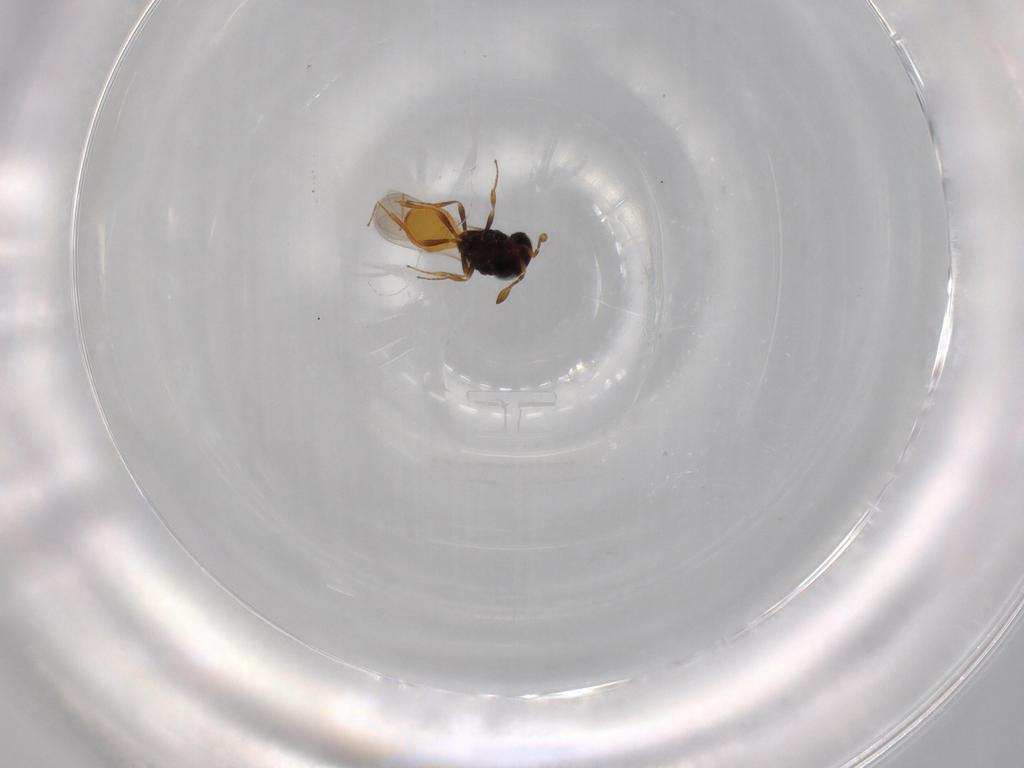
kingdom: Animalia
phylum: Arthropoda
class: Insecta
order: Hymenoptera
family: Scelionidae
